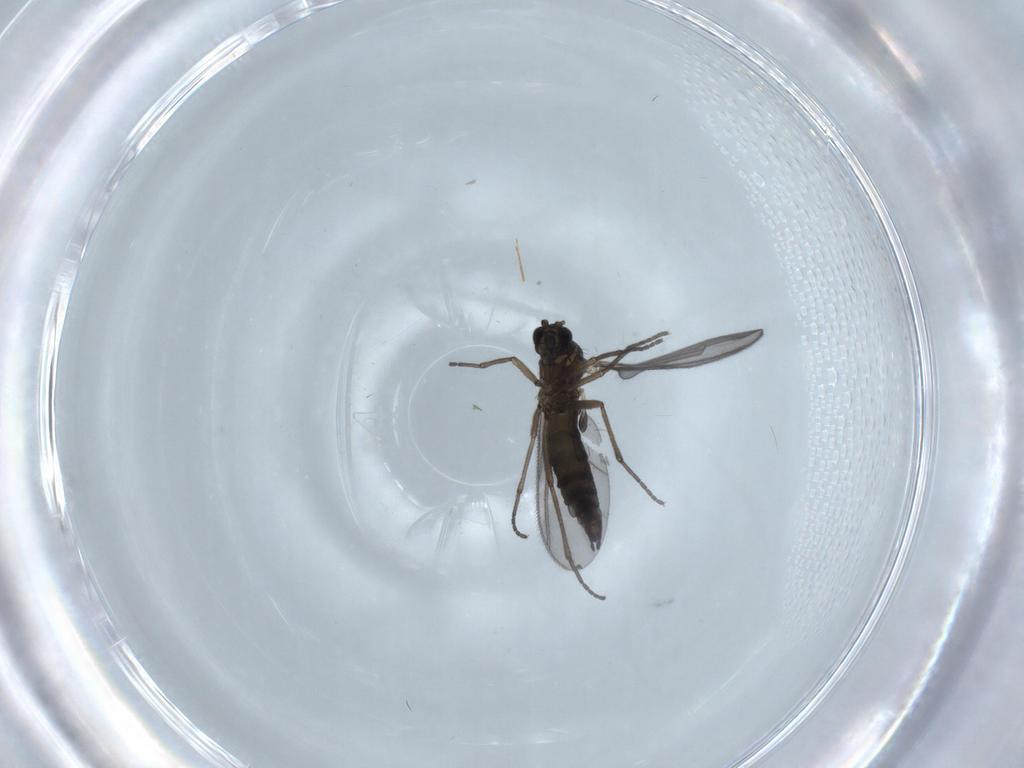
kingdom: Animalia
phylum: Arthropoda
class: Insecta
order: Diptera
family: Sciaridae
